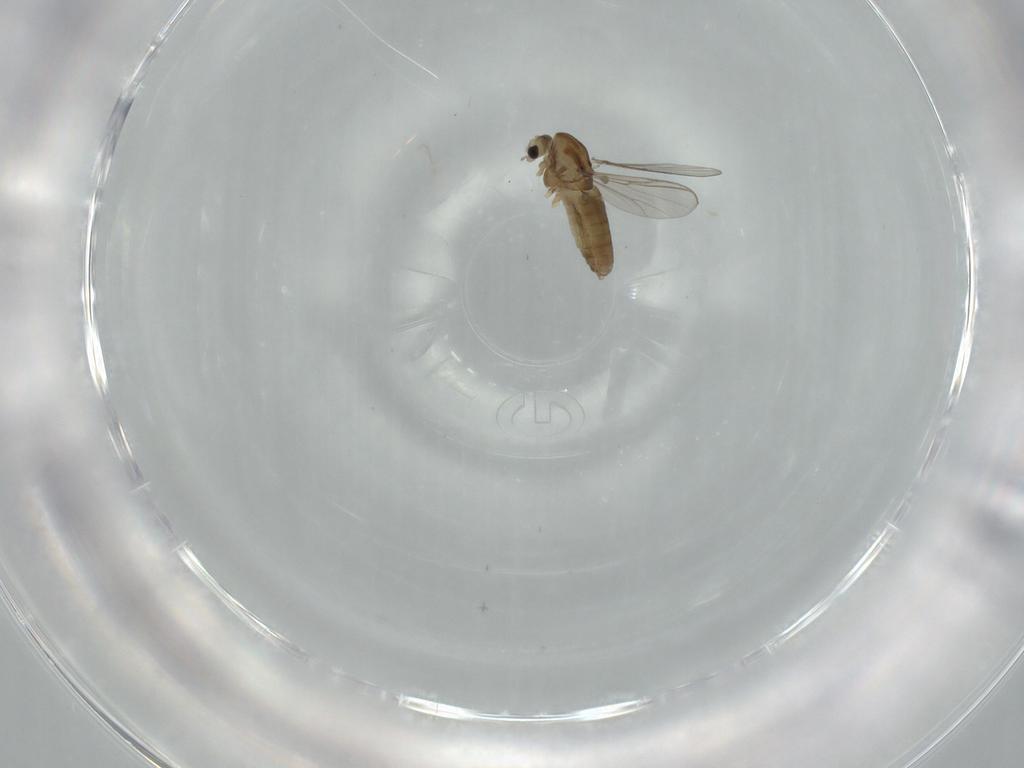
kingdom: Animalia
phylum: Arthropoda
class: Insecta
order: Diptera
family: Chironomidae
